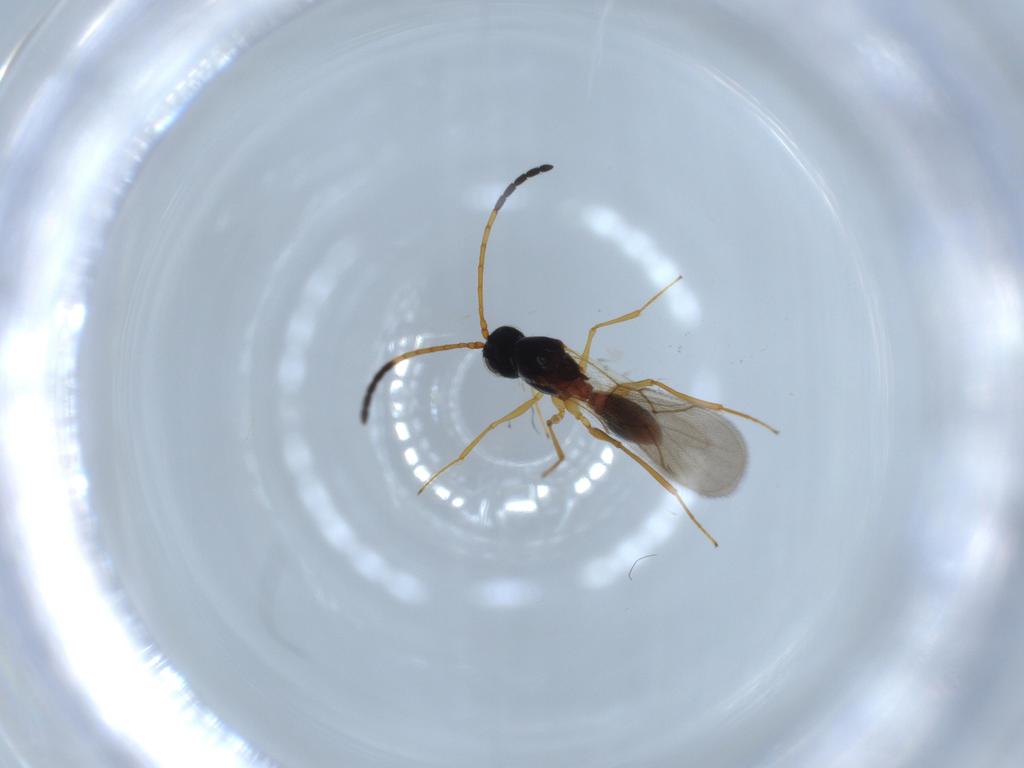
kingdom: Animalia
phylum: Arthropoda
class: Insecta
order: Hymenoptera
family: Figitidae
